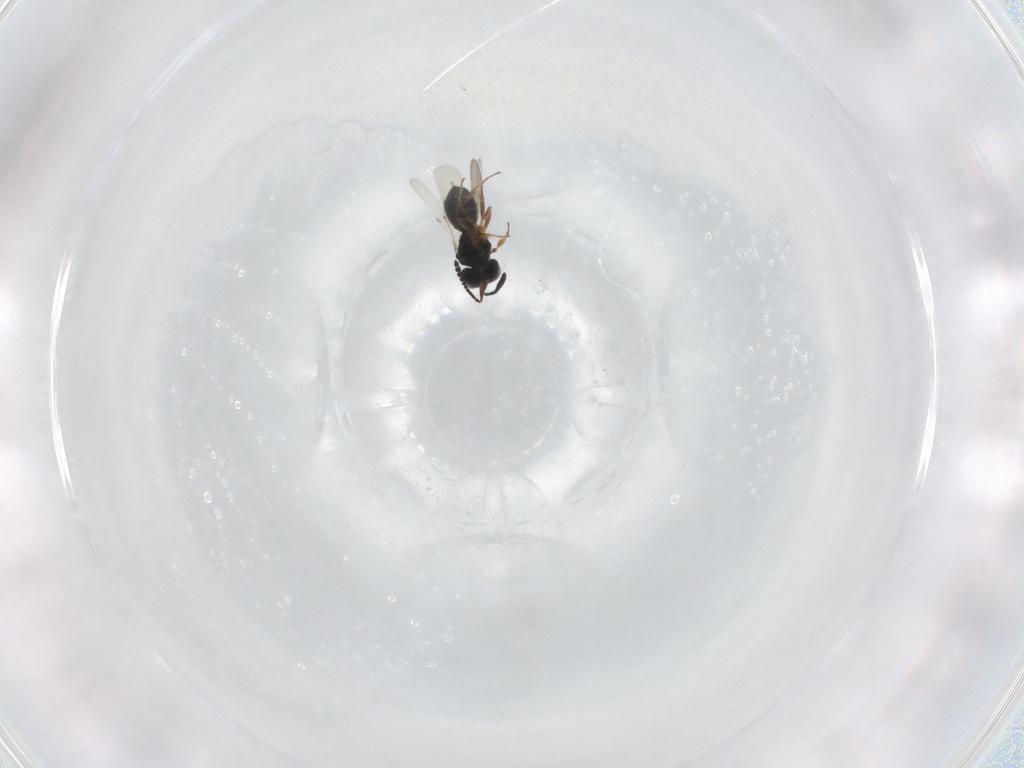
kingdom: Animalia
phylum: Arthropoda
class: Insecta
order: Hymenoptera
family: Scelionidae
